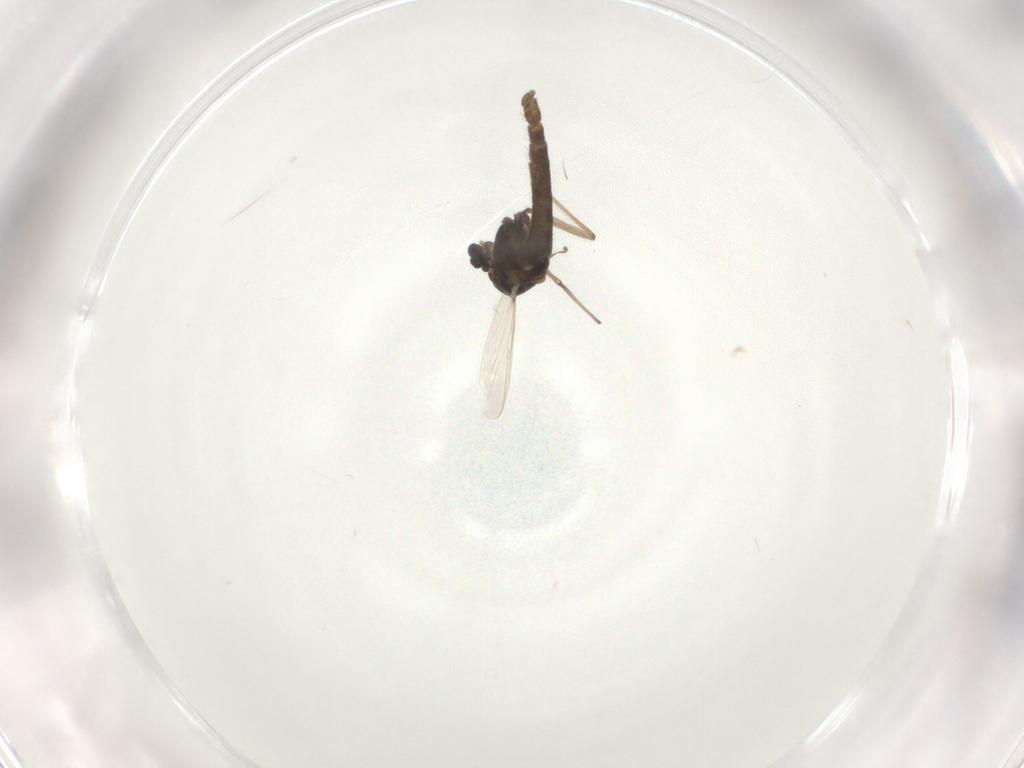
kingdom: Animalia
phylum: Arthropoda
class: Insecta
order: Diptera
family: Chironomidae
